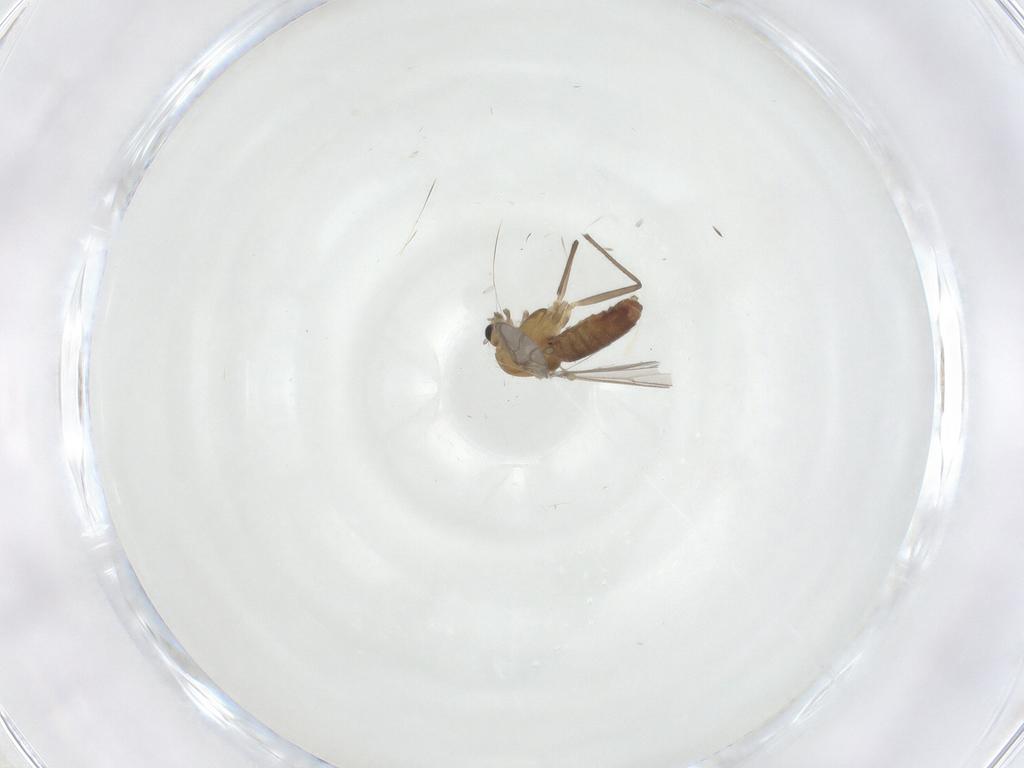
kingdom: Animalia
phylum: Arthropoda
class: Insecta
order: Diptera
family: Chironomidae
